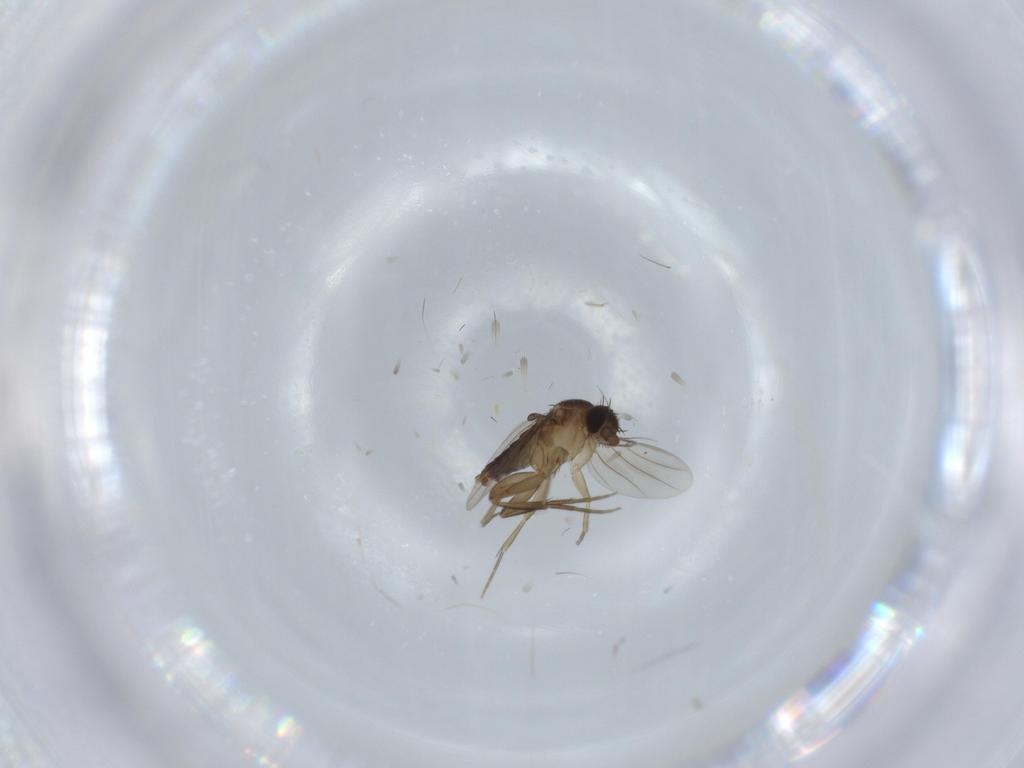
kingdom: Animalia
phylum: Arthropoda
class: Insecta
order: Diptera
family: Phoridae
